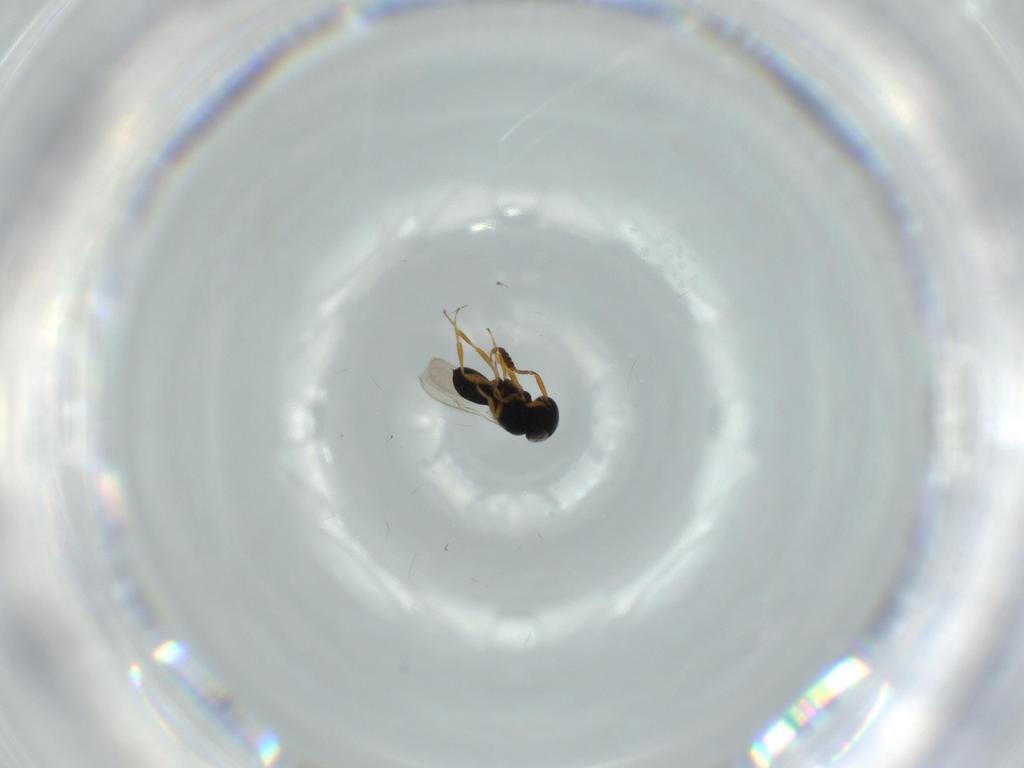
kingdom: Animalia
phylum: Arthropoda
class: Insecta
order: Hymenoptera
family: Scelionidae
